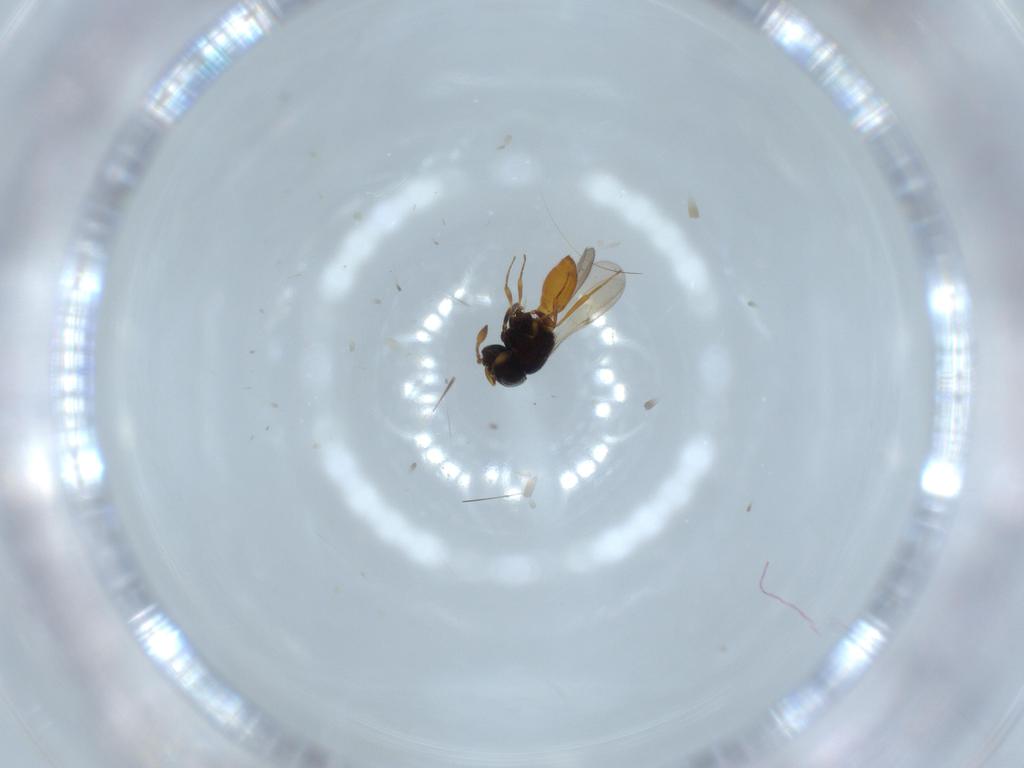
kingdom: Animalia
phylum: Arthropoda
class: Insecta
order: Hymenoptera
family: Scelionidae
